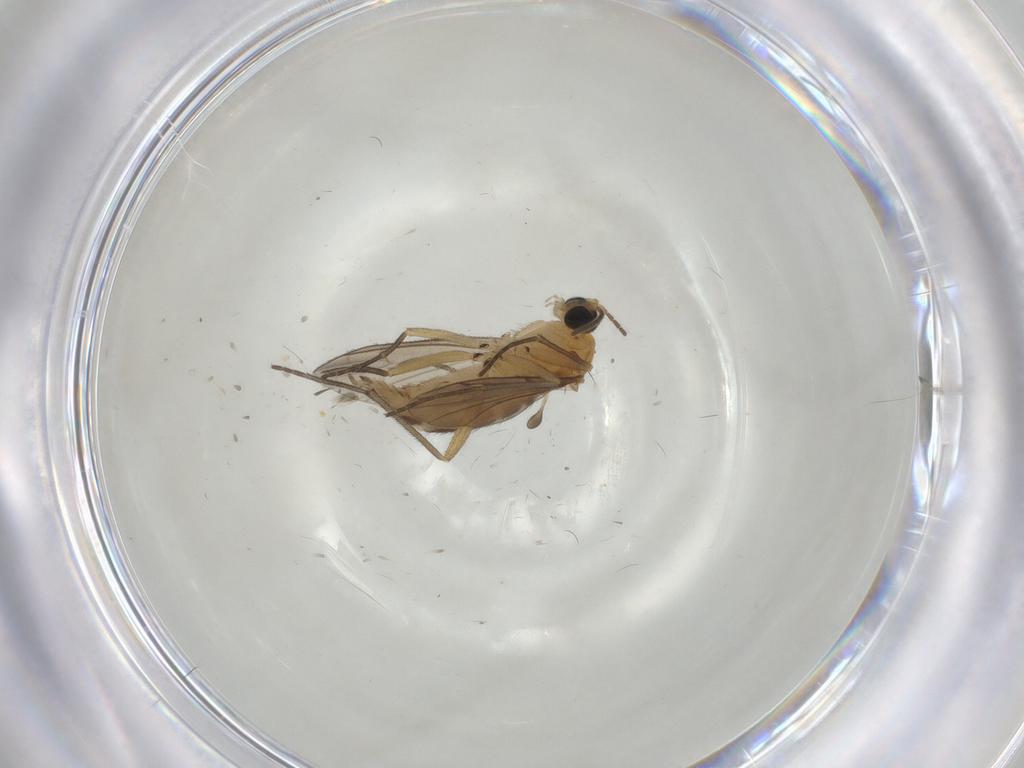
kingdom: Animalia
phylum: Arthropoda
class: Insecta
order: Diptera
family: Cecidomyiidae
